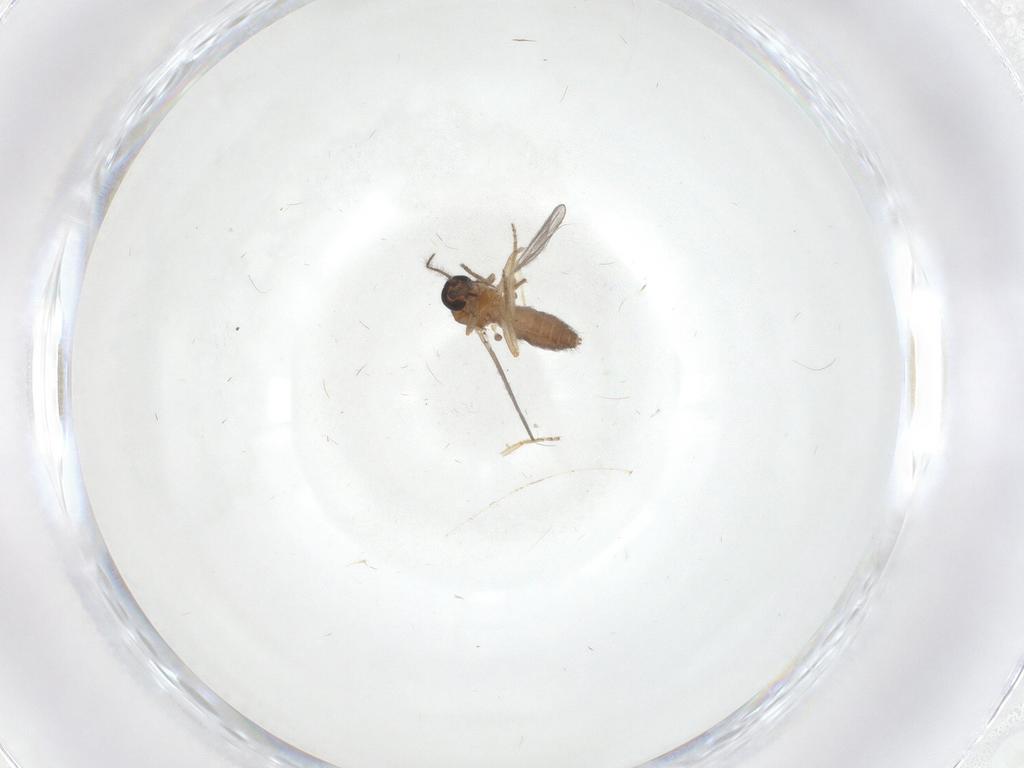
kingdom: Animalia
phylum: Arthropoda
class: Insecta
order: Diptera
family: Ceratopogonidae
